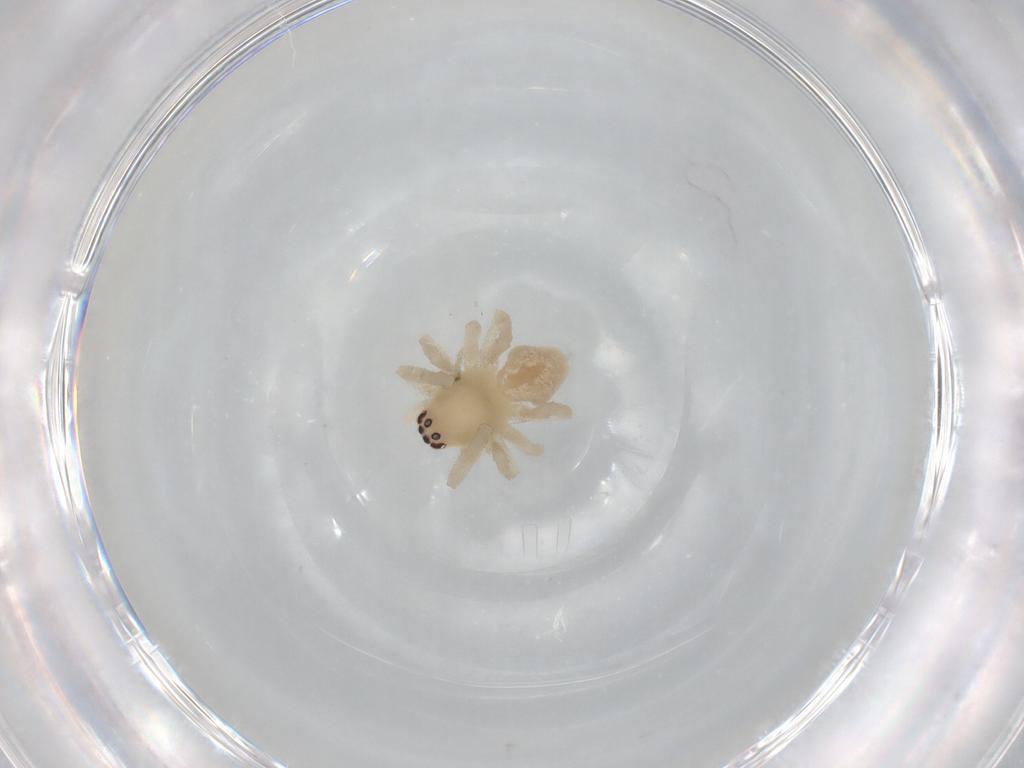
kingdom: Animalia
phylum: Arthropoda
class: Arachnida
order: Araneae
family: Cheiracanthiidae
